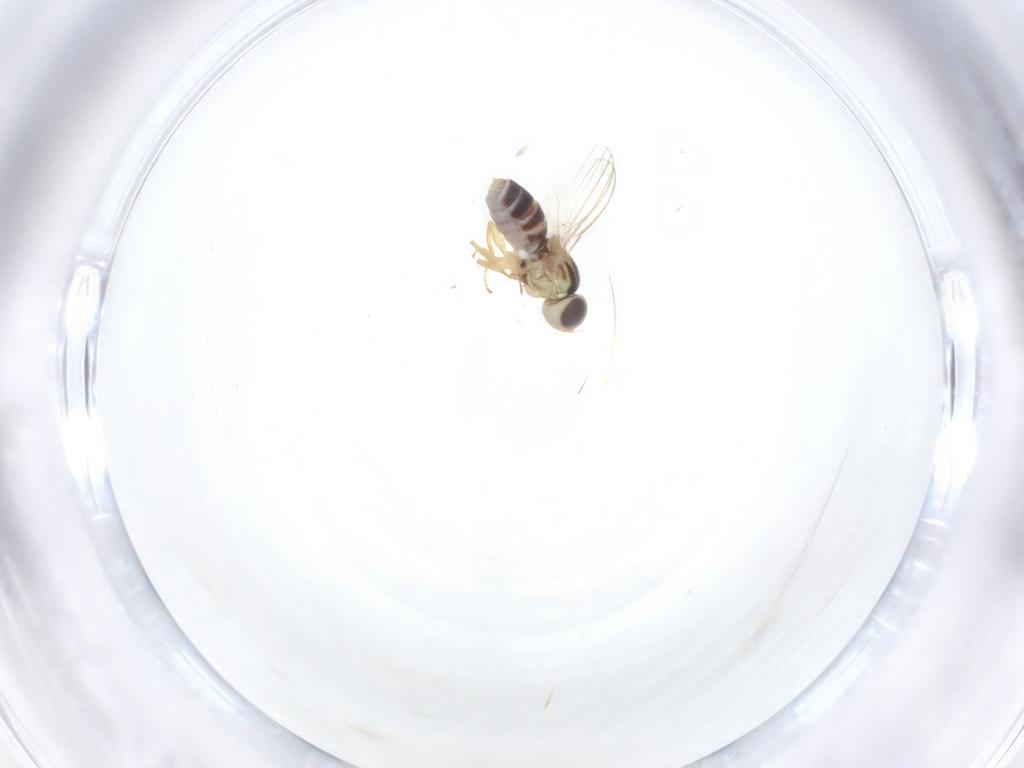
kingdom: Animalia
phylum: Arthropoda
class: Insecta
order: Diptera
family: Chyromyidae
